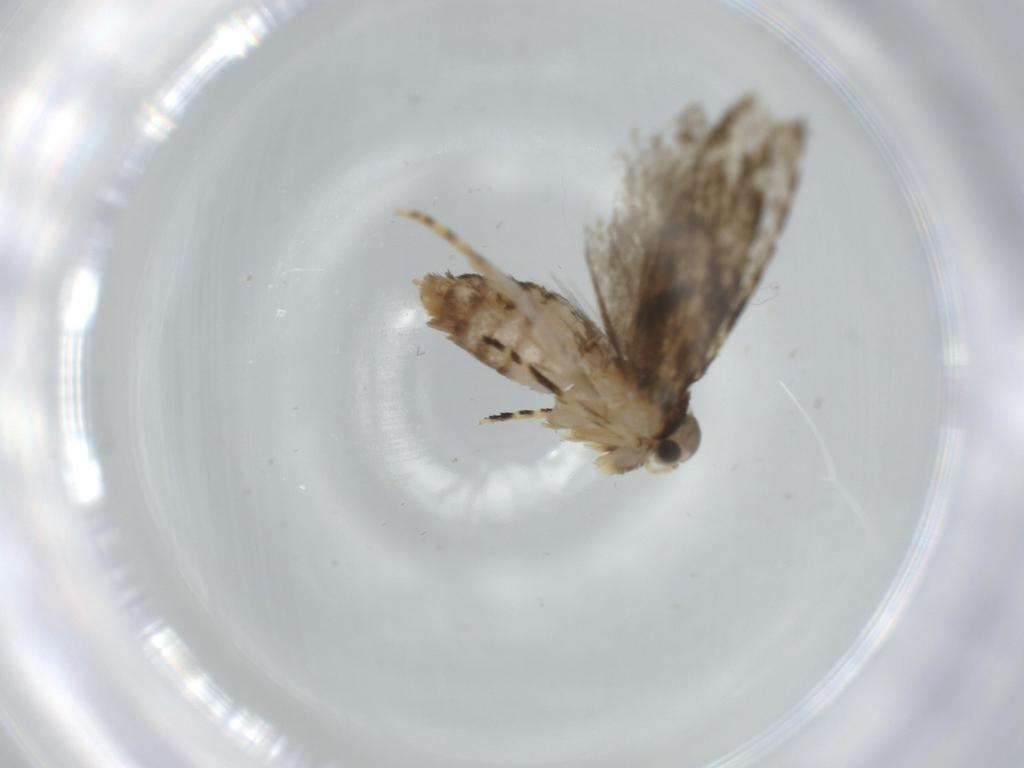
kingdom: Animalia
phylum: Arthropoda
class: Insecta
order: Lepidoptera
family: Tineidae
